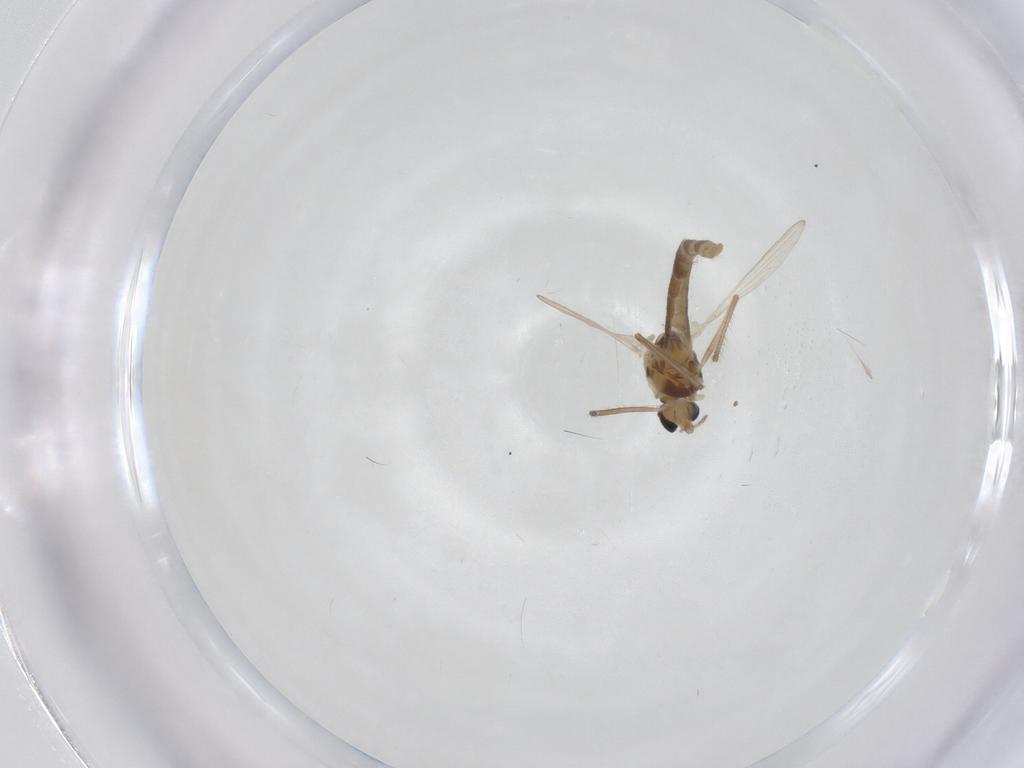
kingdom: Animalia
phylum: Arthropoda
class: Insecta
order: Diptera
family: Chironomidae
